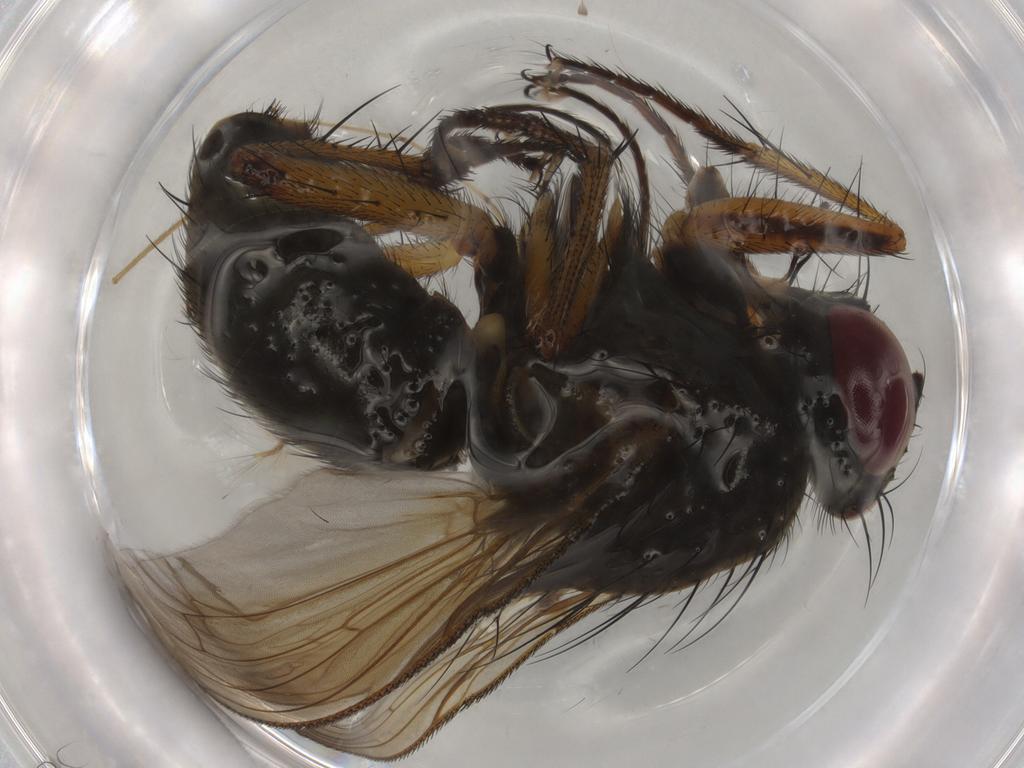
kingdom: Animalia
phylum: Arthropoda
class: Insecta
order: Diptera
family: Muscidae
